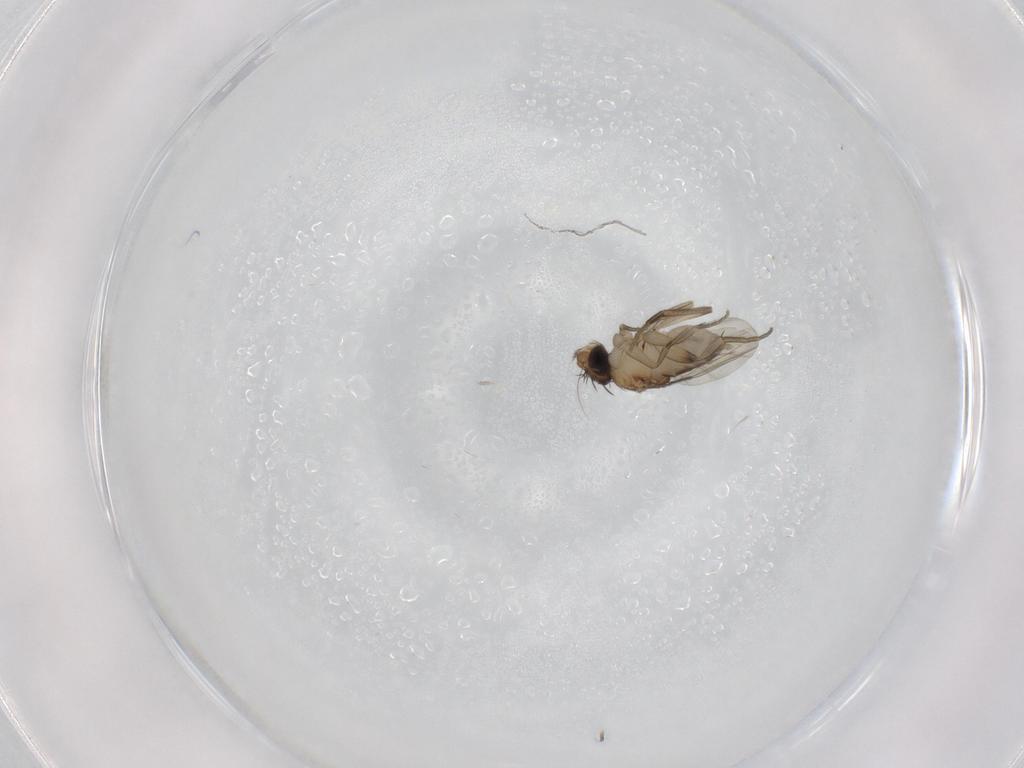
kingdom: Animalia
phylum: Arthropoda
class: Insecta
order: Diptera
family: Phoridae
